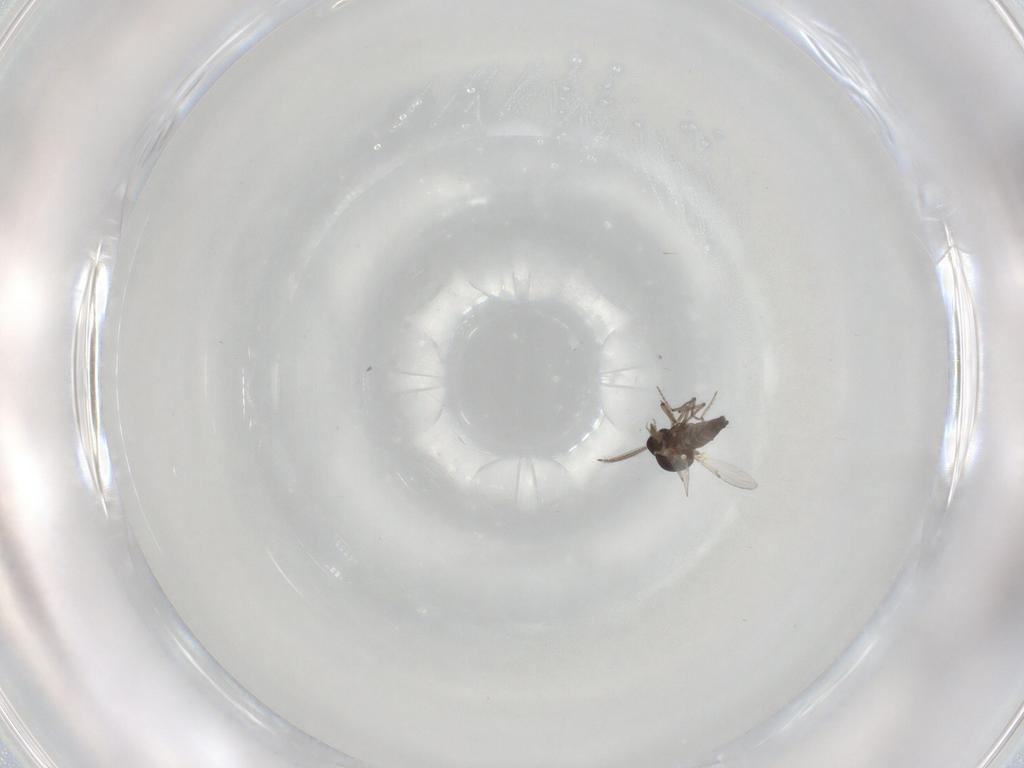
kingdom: Animalia
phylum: Arthropoda
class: Insecta
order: Diptera
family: Ceratopogonidae
